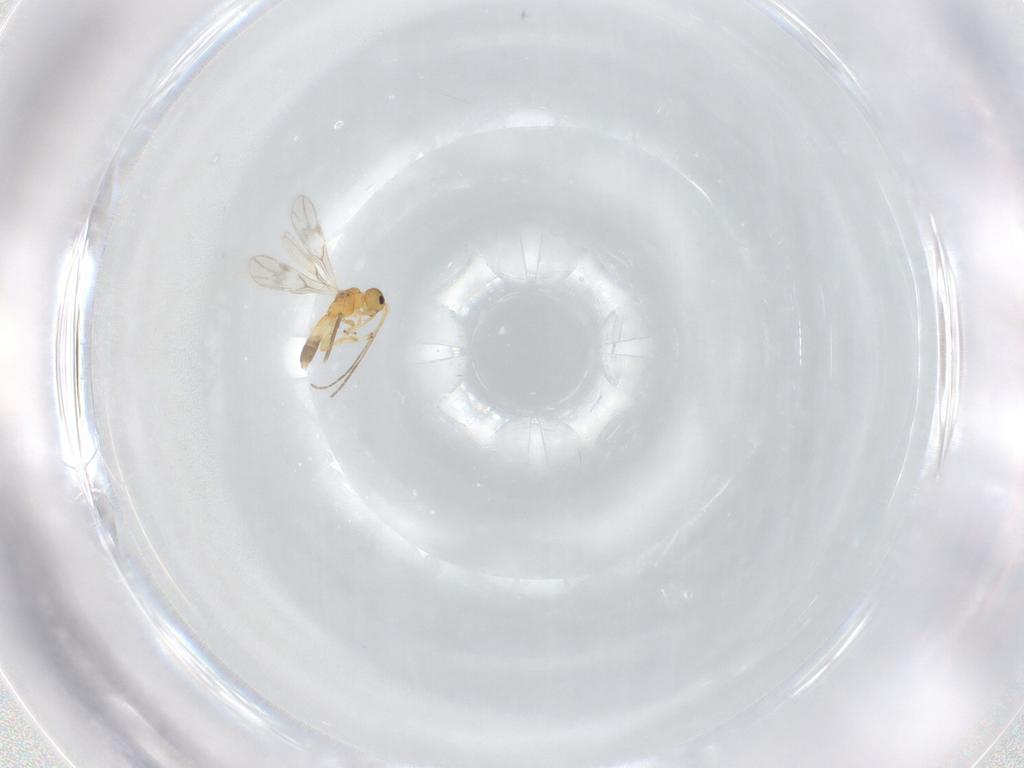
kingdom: Animalia
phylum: Arthropoda
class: Insecta
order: Hymenoptera
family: Braconidae
